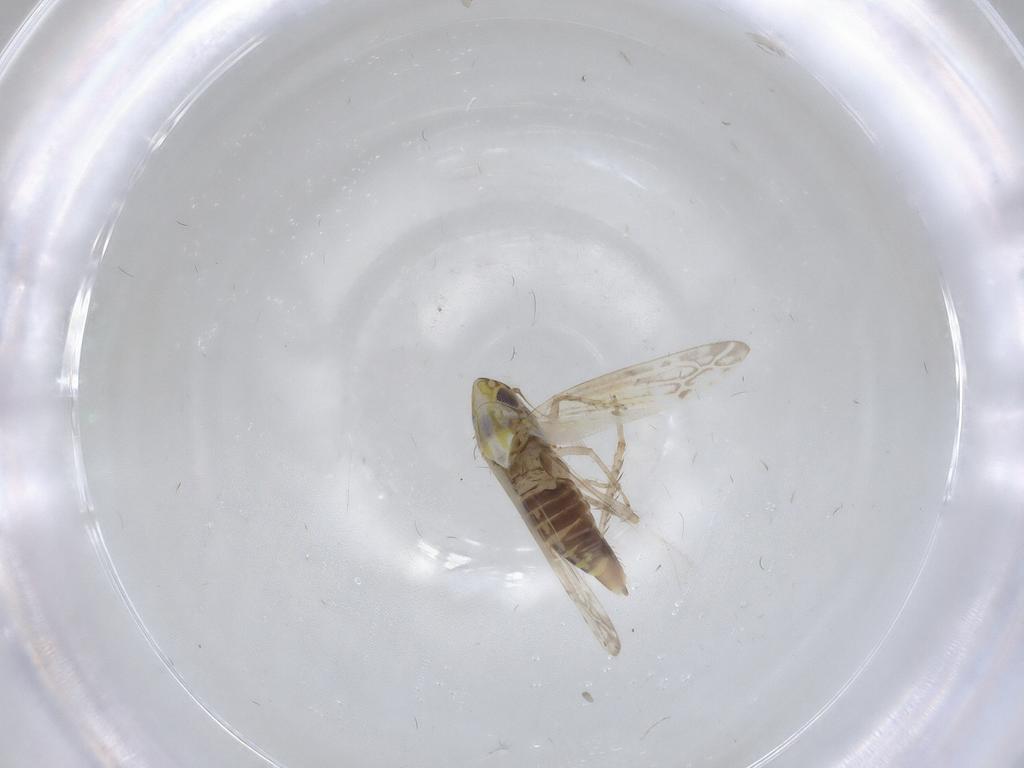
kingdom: Animalia
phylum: Arthropoda
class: Insecta
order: Hemiptera
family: Cicadellidae
